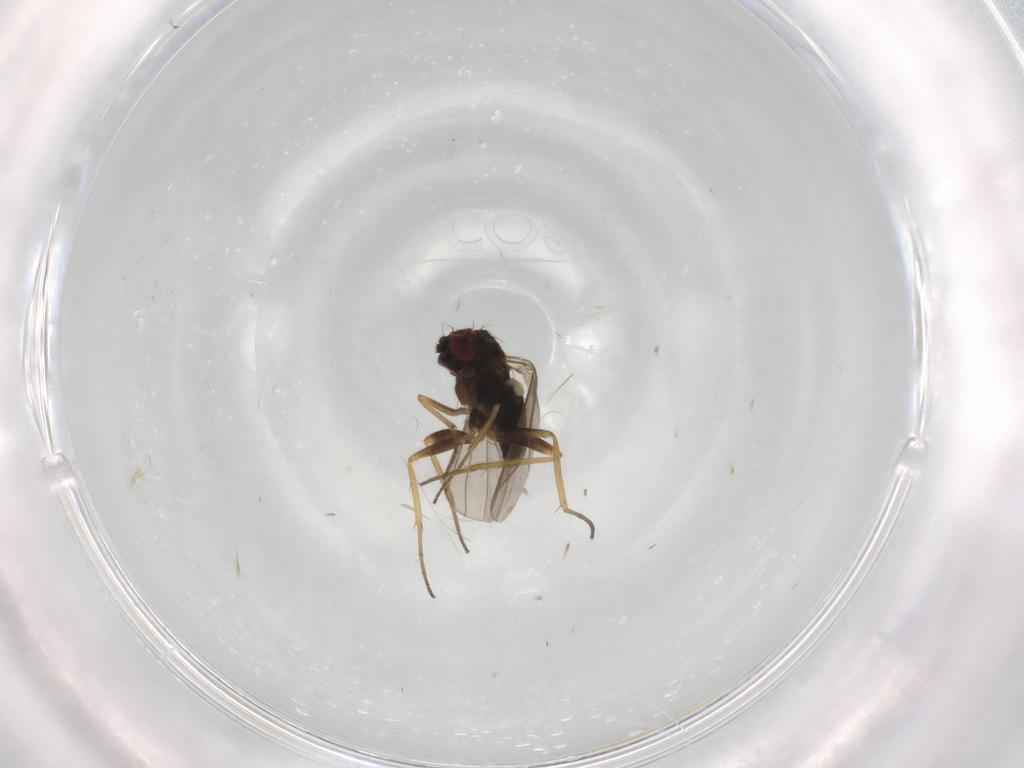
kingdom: Animalia
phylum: Arthropoda
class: Insecta
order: Diptera
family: Dolichopodidae
